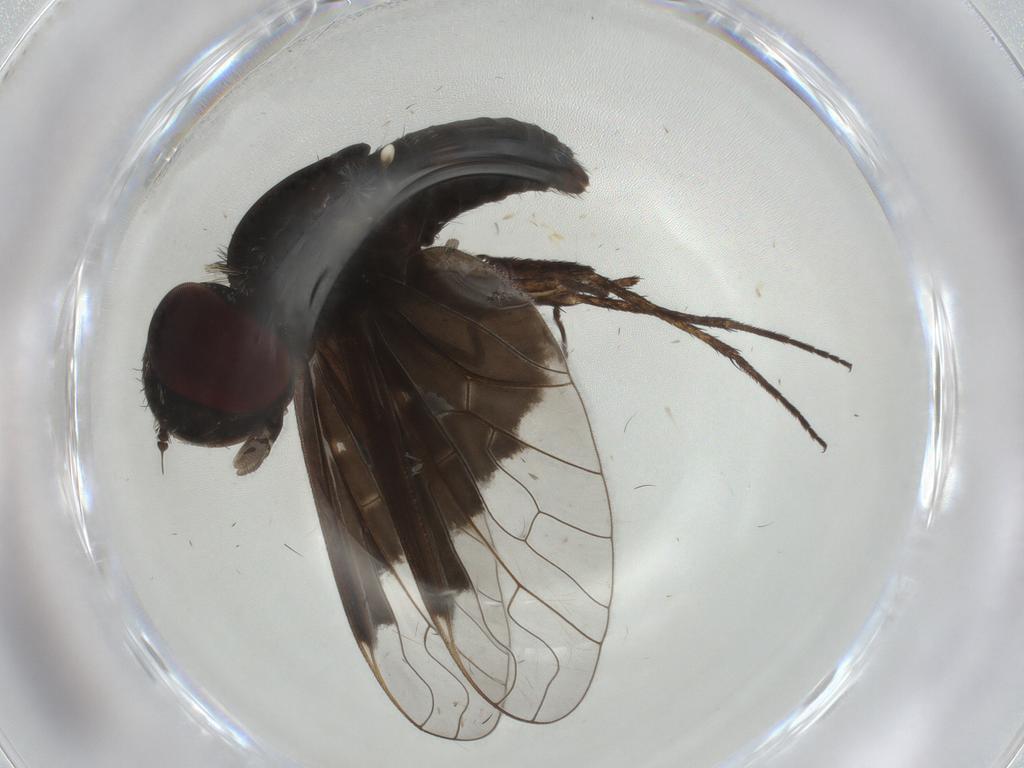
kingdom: Animalia
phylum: Arthropoda
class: Insecta
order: Diptera
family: Bombyliidae
